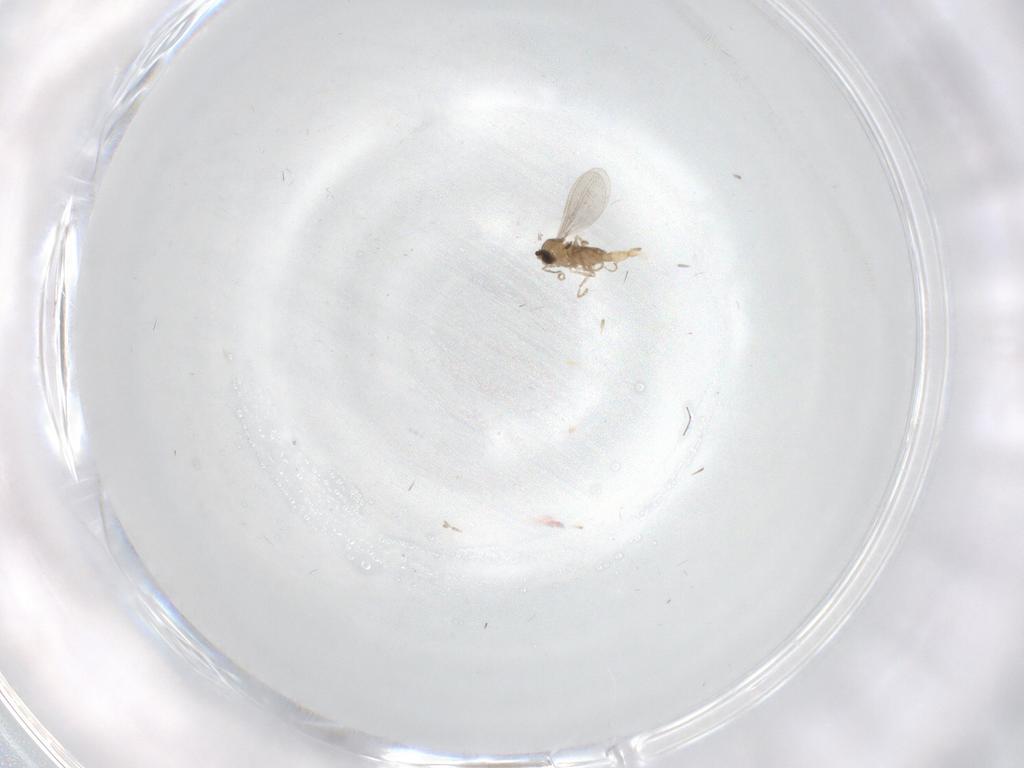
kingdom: Animalia
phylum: Arthropoda
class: Insecta
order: Diptera
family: Cecidomyiidae
